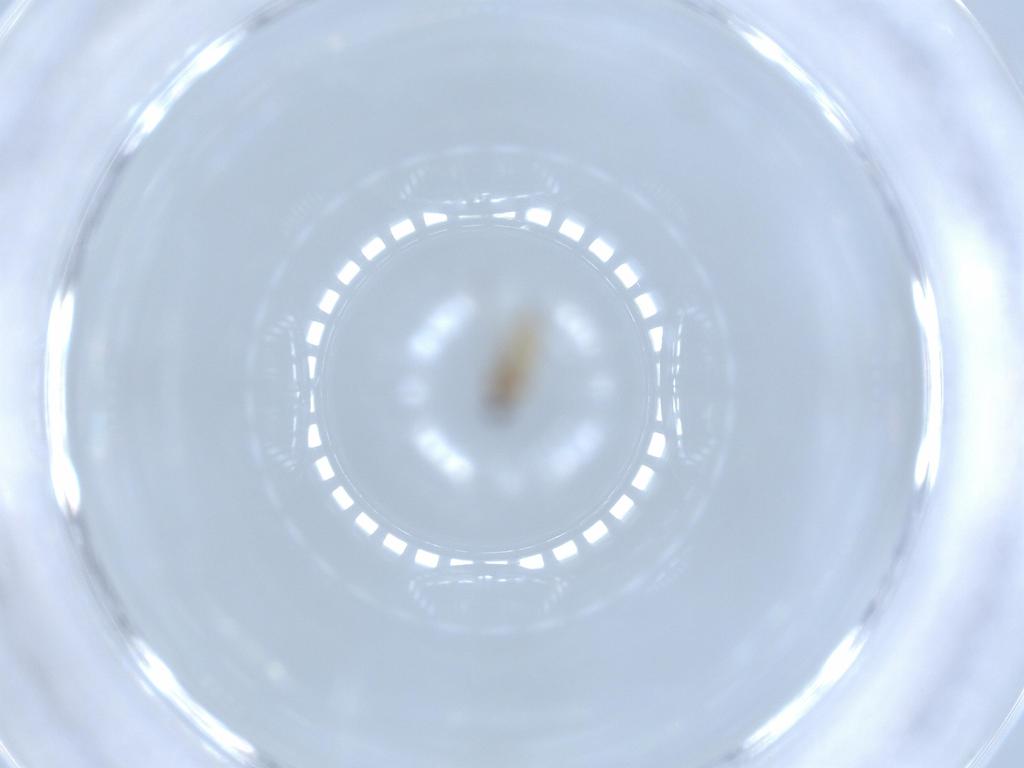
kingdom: Animalia
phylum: Arthropoda
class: Insecta
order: Diptera
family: Cecidomyiidae
